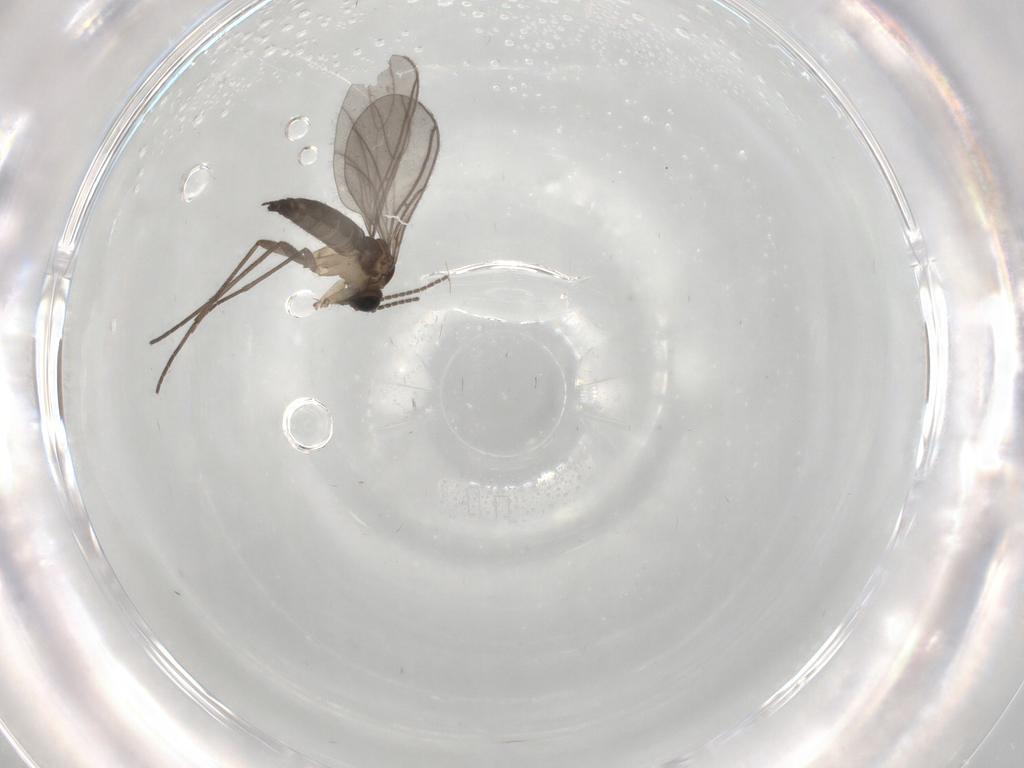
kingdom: Animalia
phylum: Arthropoda
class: Insecta
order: Diptera
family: Sciaridae
